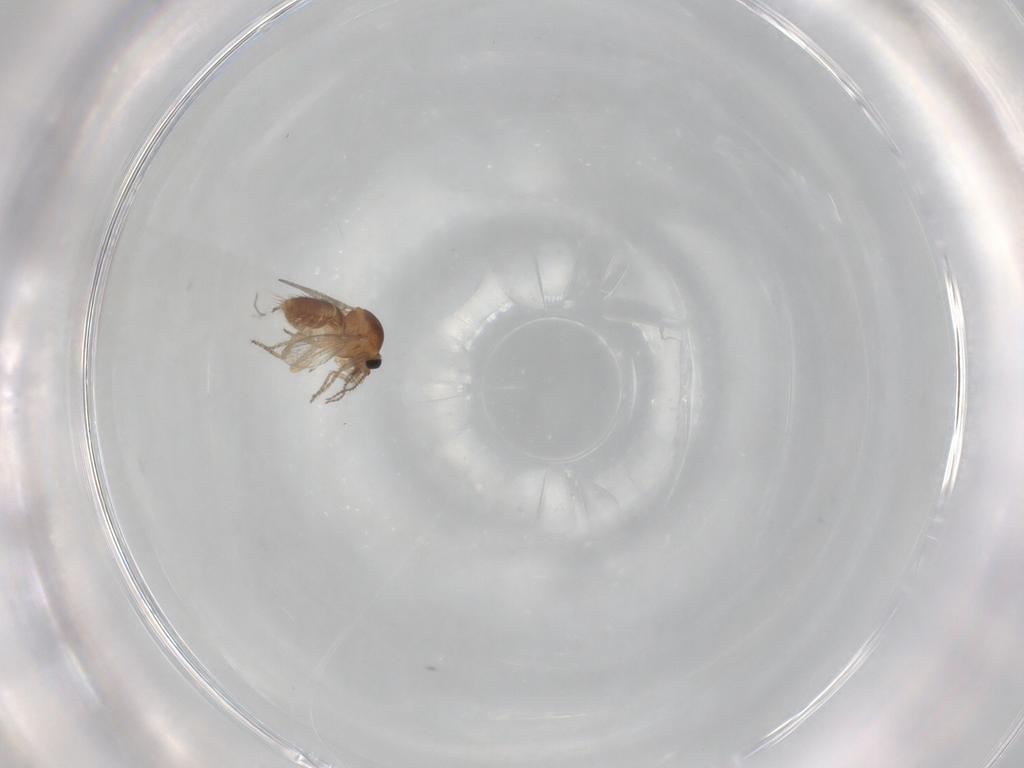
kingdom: Animalia
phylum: Arthropoda
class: Insecta
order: Diptera
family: Ceratopogonidae
